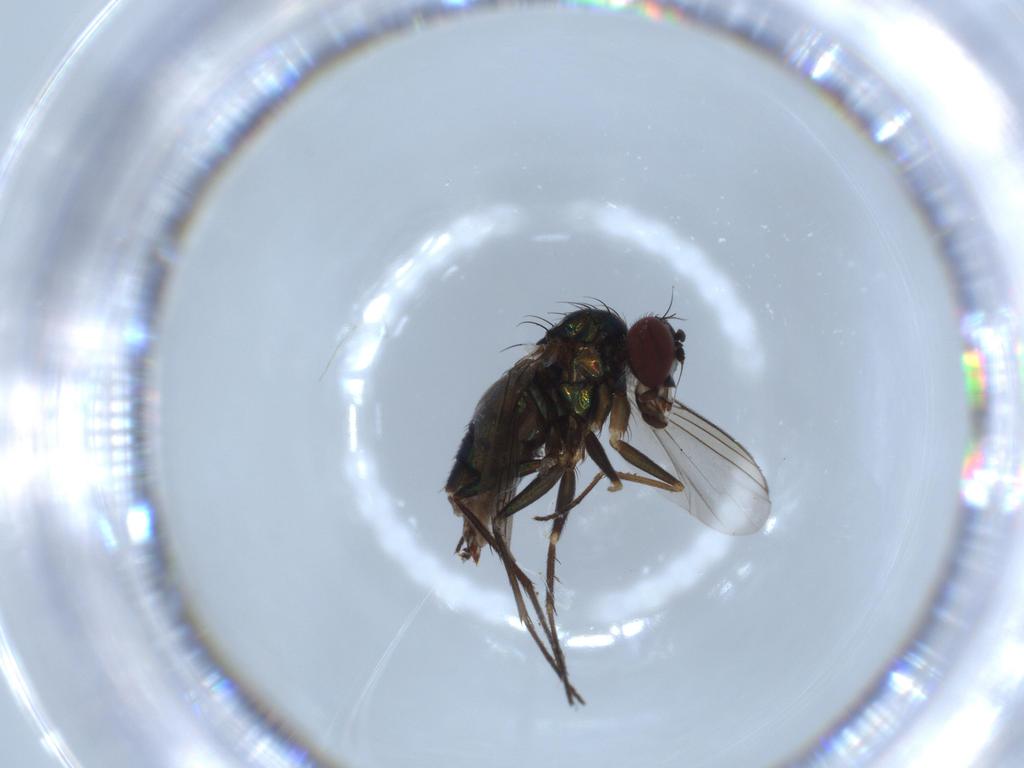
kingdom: Animalia
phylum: Arthropoda
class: Insecta
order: Diptera
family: Dolichopodidae
